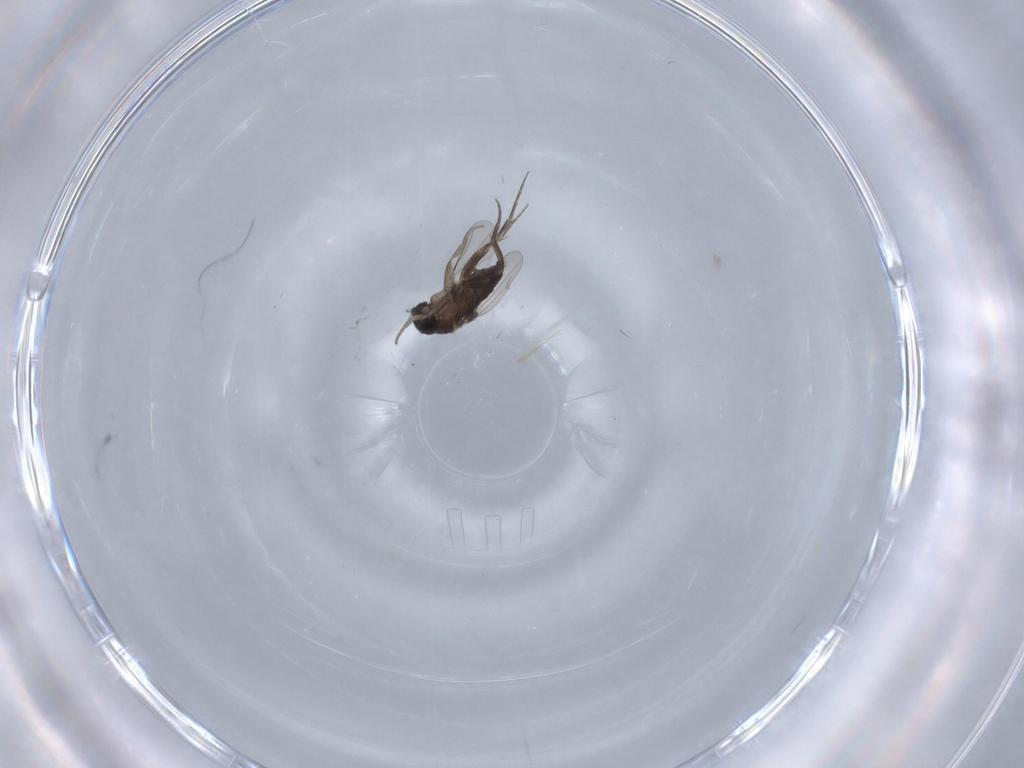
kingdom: Animalia
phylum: Arthropoda
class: Insecta
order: Diptera
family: Phoridae
